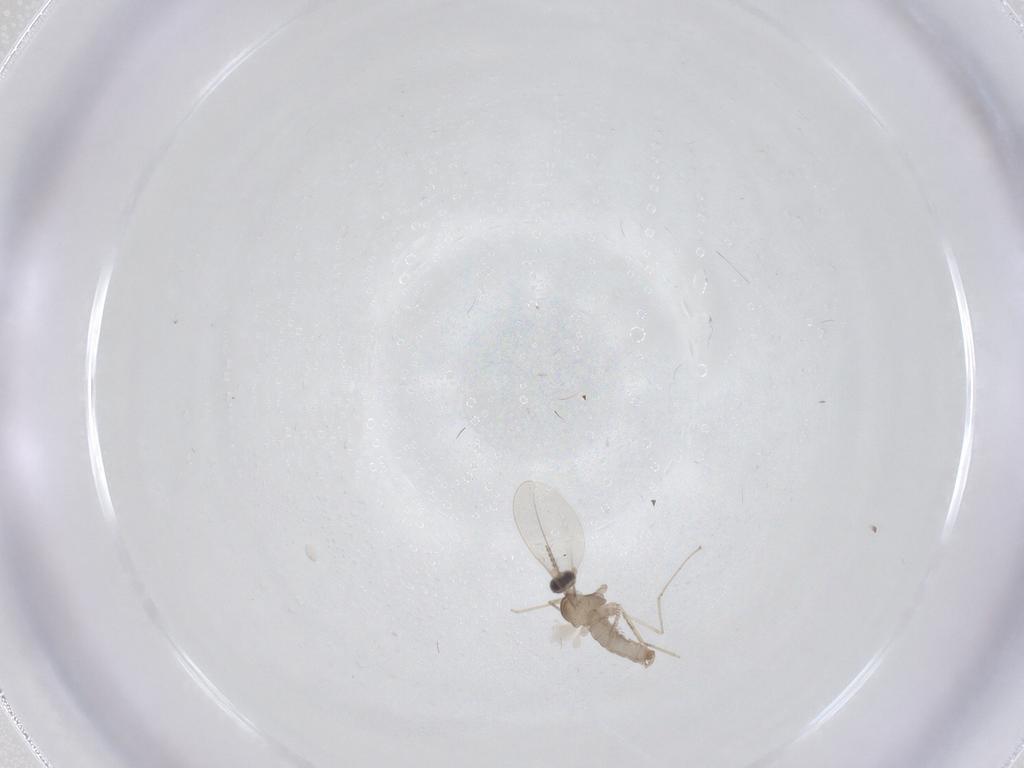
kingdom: Animalia
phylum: Arthropoda
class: Insecta
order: Diptera
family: Cecidomyiidae
